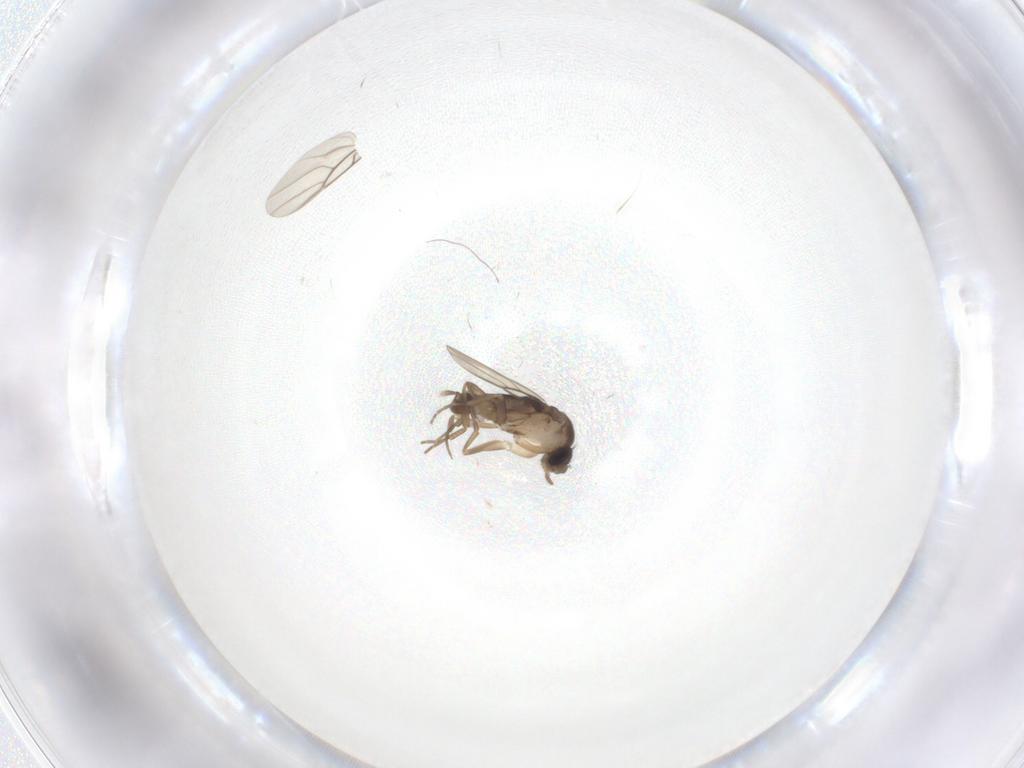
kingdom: Animalia
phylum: Arthropoda
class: Insecta
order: Diptera
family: Phoridae
